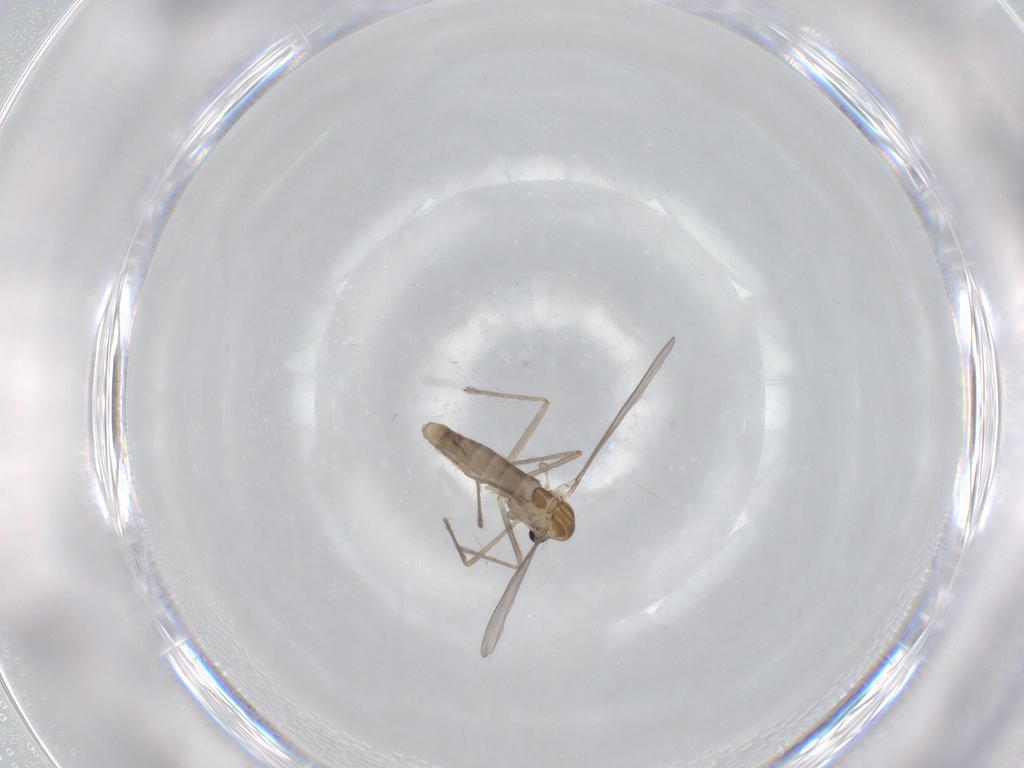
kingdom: Animalia
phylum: Arthropoda
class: Insecta
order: Diptera
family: Chironomidae
